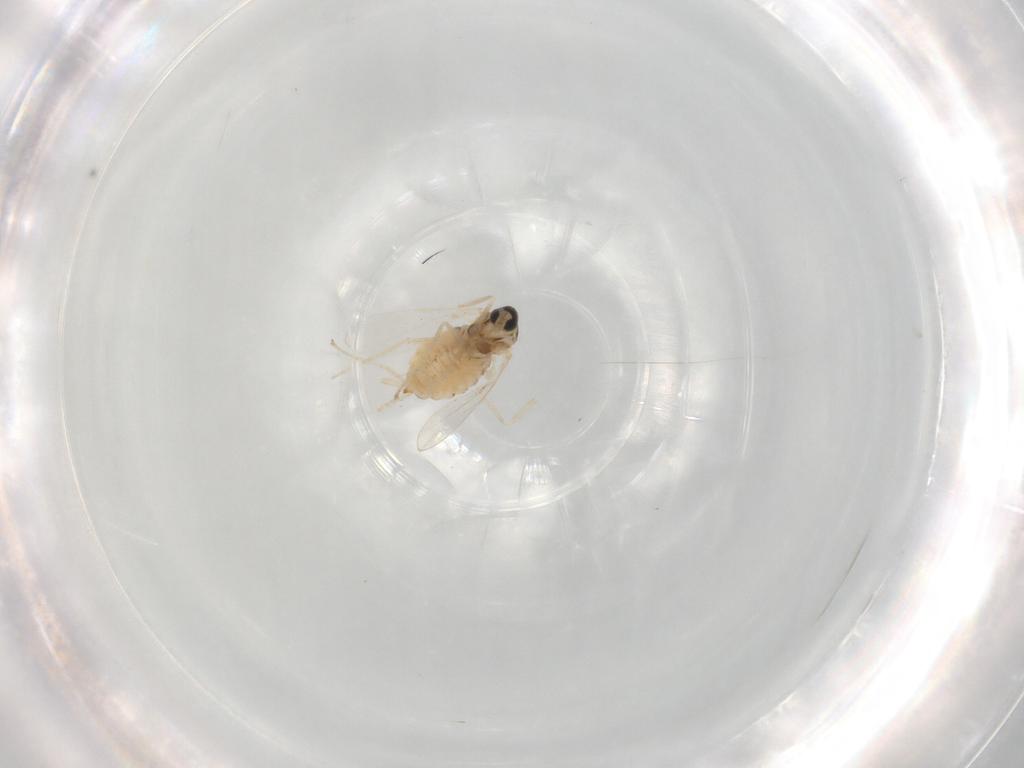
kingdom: Animalia
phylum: Arthropoda
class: Insecta
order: Diptera
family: Cecidomyiidae
